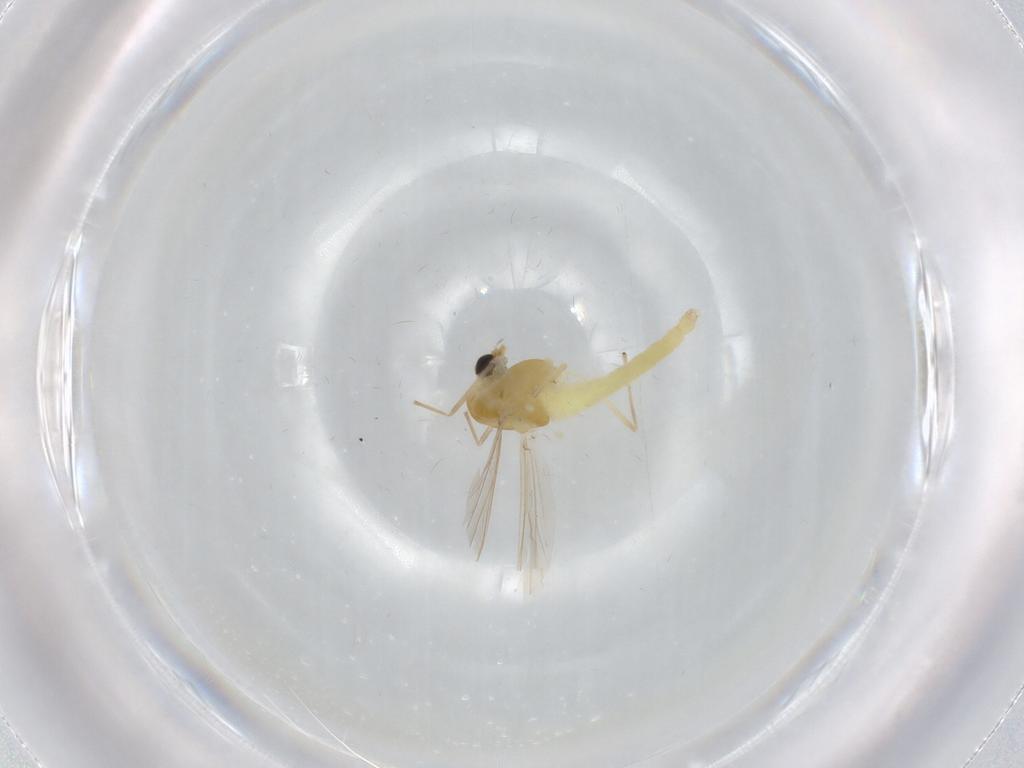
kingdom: Animalia
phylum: Arthropoda
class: Insecta
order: Diptera
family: Chironomidae
